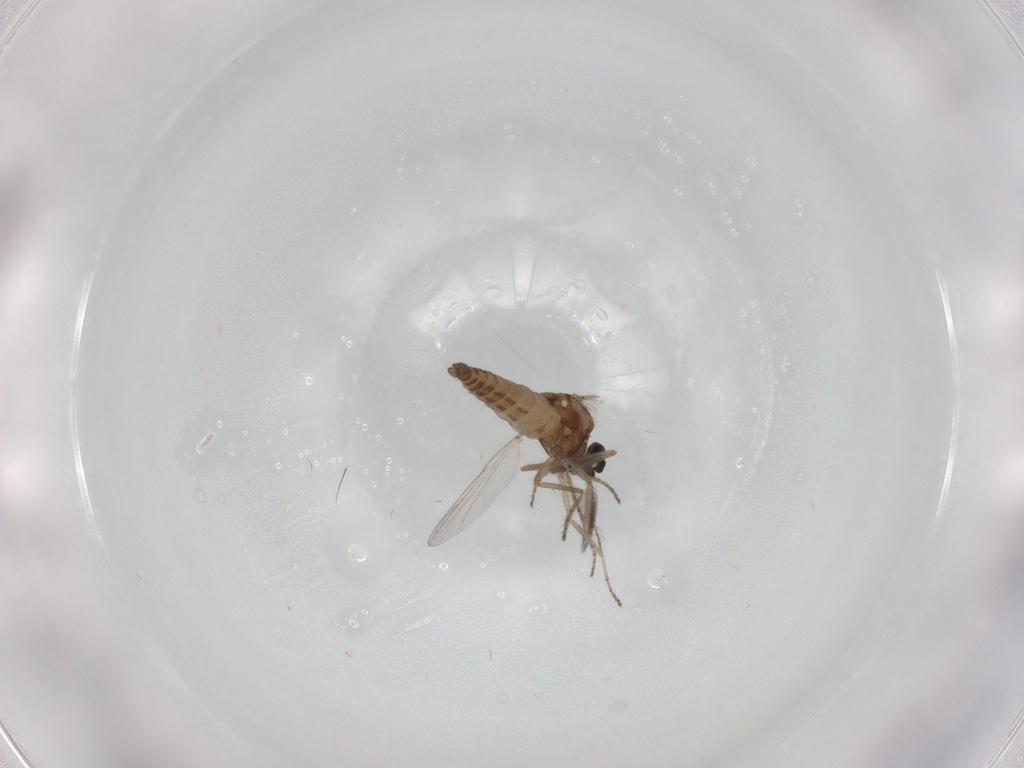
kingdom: Animalia
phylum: Arthropoda
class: Insecta
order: Diptera
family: Ceratopogonidae
